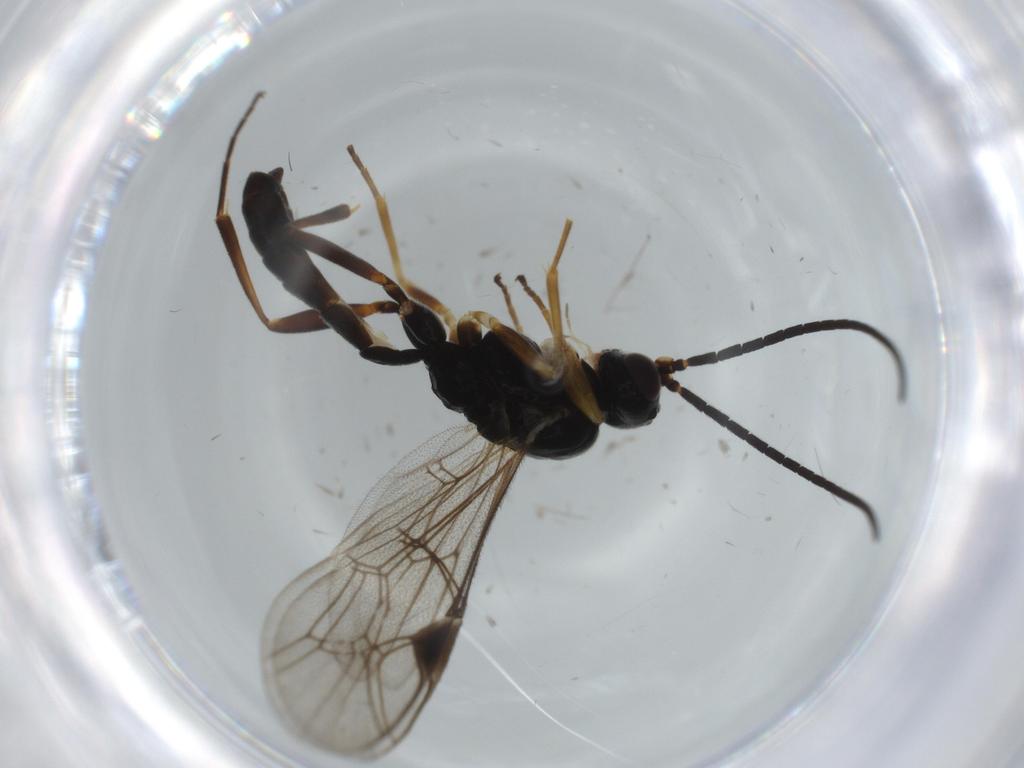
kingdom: Animalia
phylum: Arthropoda
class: Insecta
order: Hymenoptera
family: Ichneumonidae
